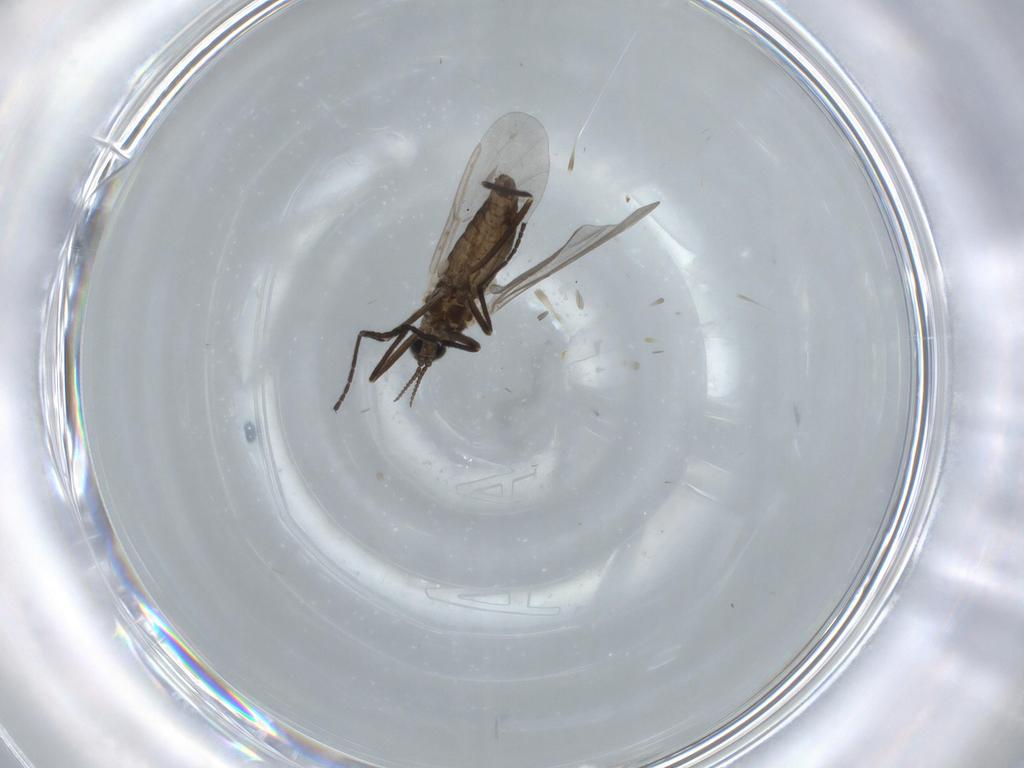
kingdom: Animalia
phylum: Arthropoda
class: Insecta
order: Diptera
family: Cecidomyiidae
